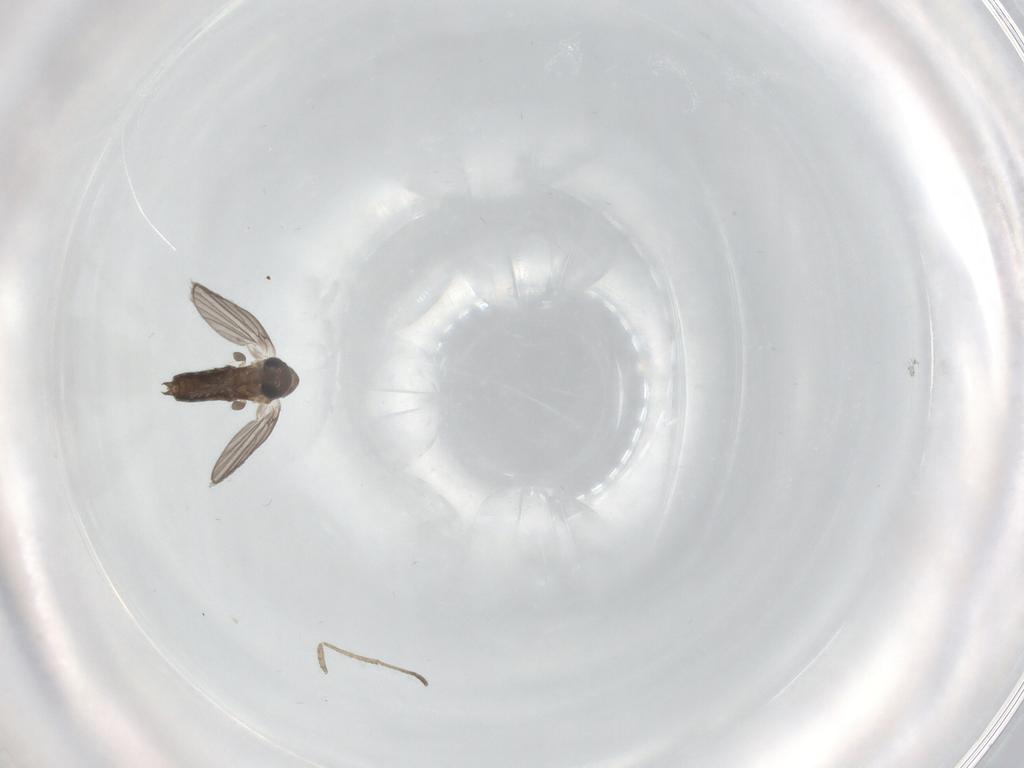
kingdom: Animalia
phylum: Arthropoda
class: Insecta
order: Diptera
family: Psychodidae
